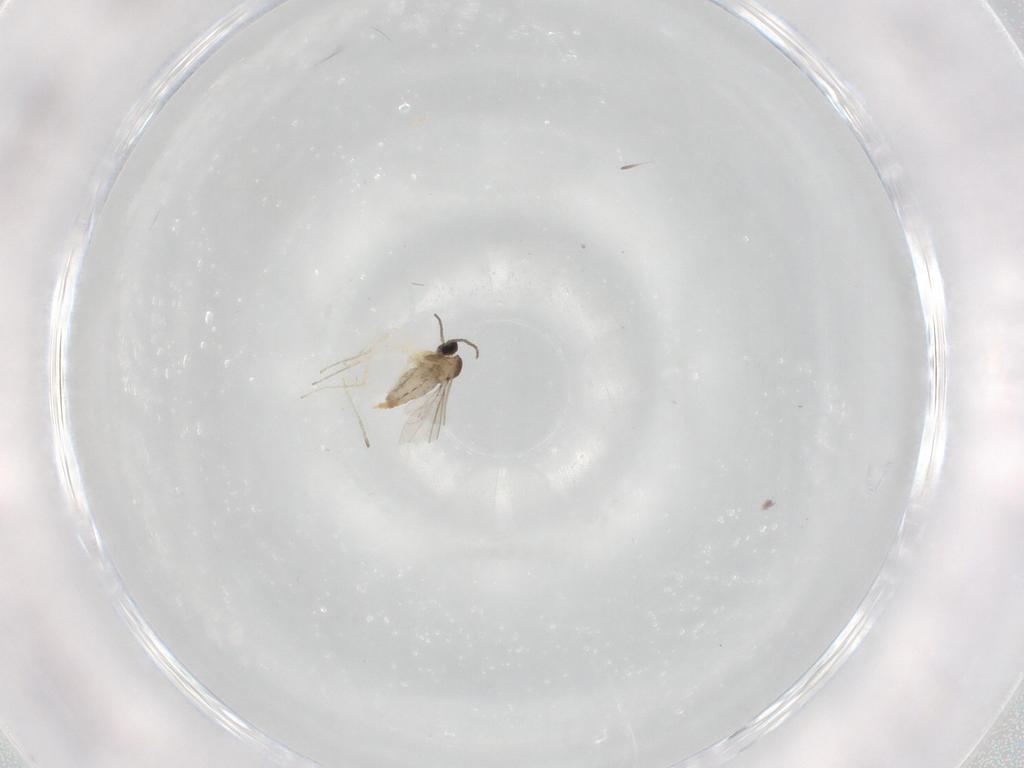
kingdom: Animalia
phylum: Arthropoda
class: Insecta
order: Diptera
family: Cecidomyiidae
